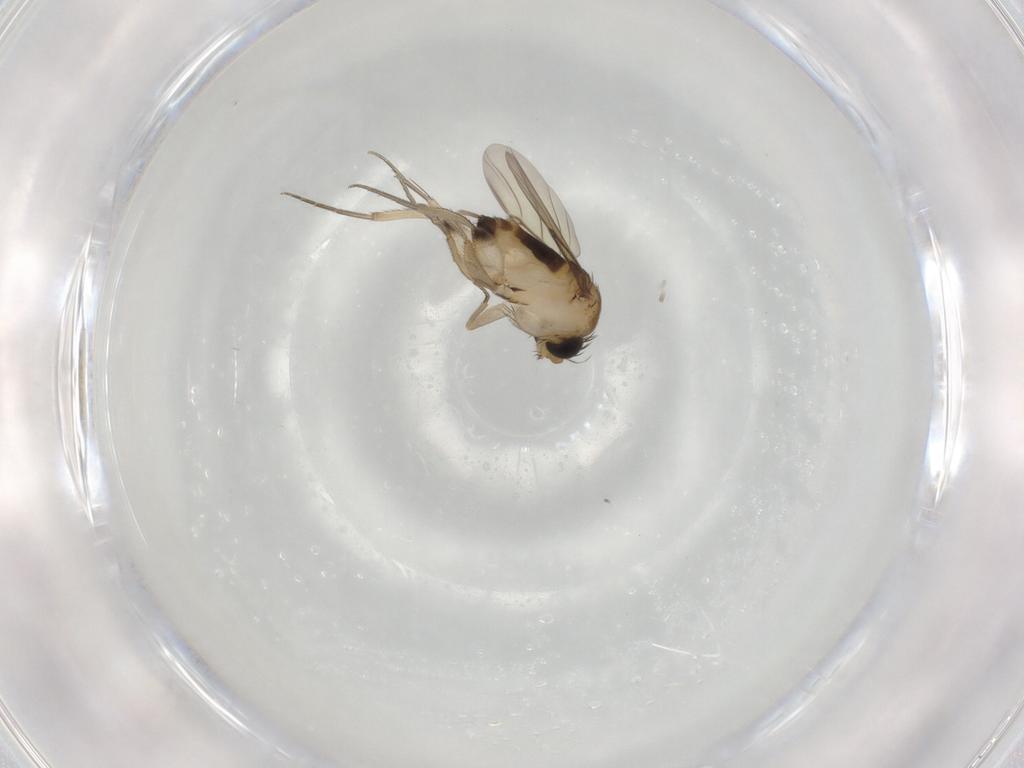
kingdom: Animalia
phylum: Arthropoda
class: Insecta
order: Diptera
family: Phoridae
